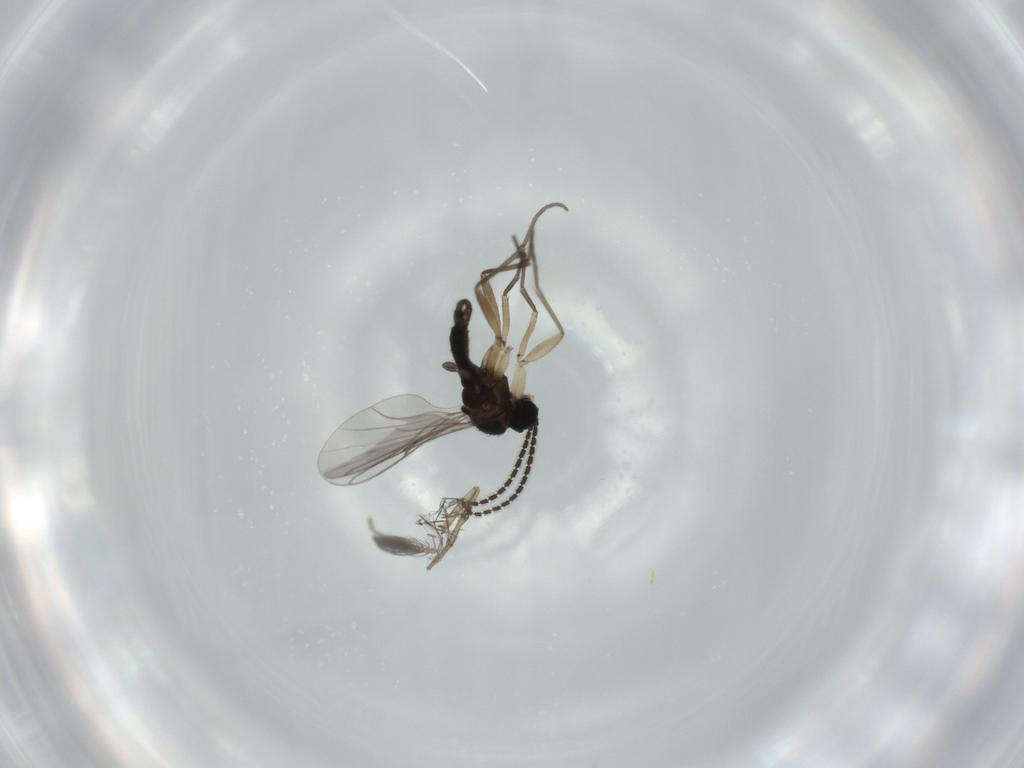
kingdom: Animalia
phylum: Arthropoda
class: Insecta
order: Diptera
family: Sciaridae
